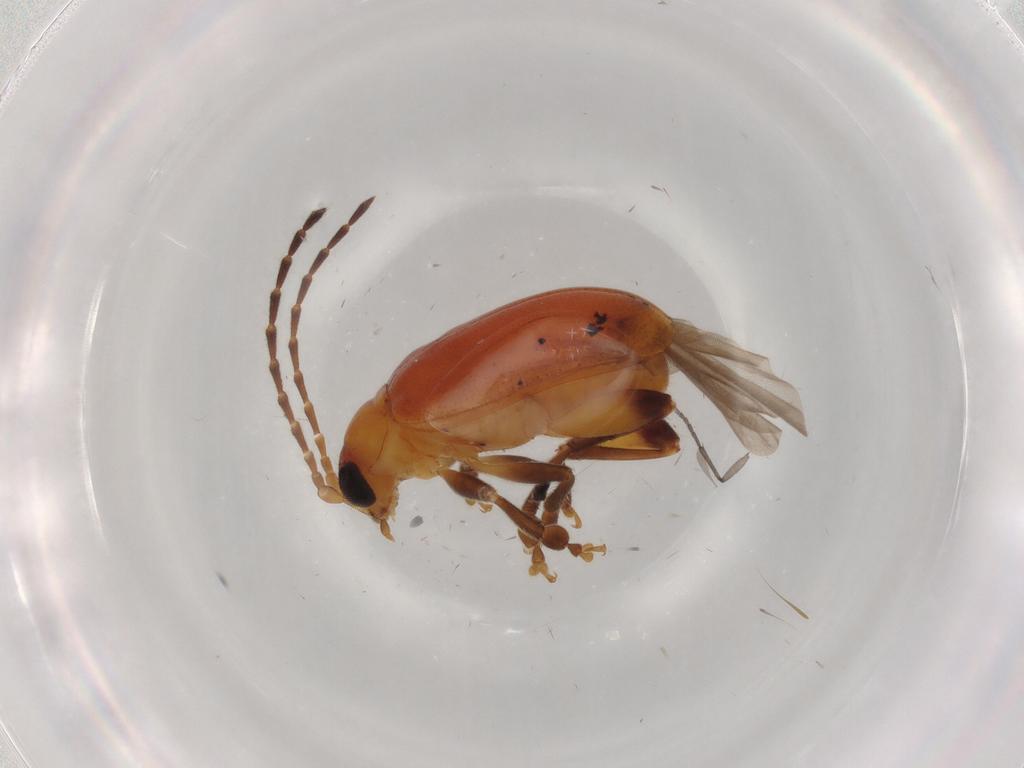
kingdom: Animalia
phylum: Arthropoda
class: Insecta
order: Coleoptera
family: Chrysomelidae
